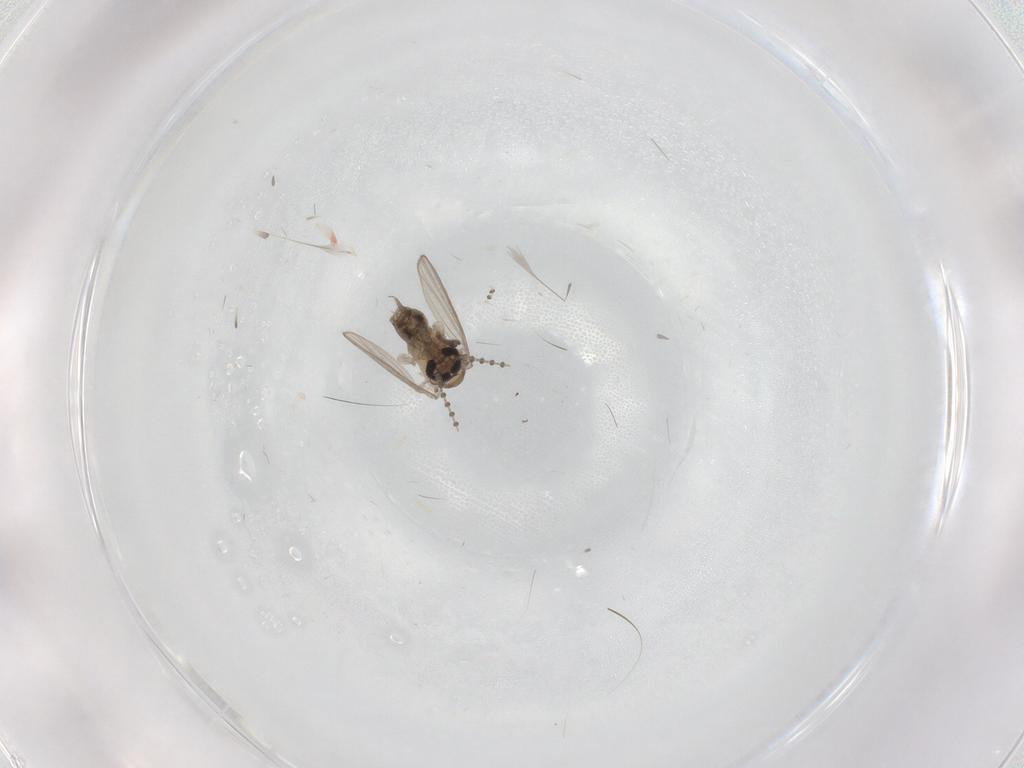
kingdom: Animalia
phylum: Arthropoda
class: Insecta
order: Diptera
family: Psychodidae
